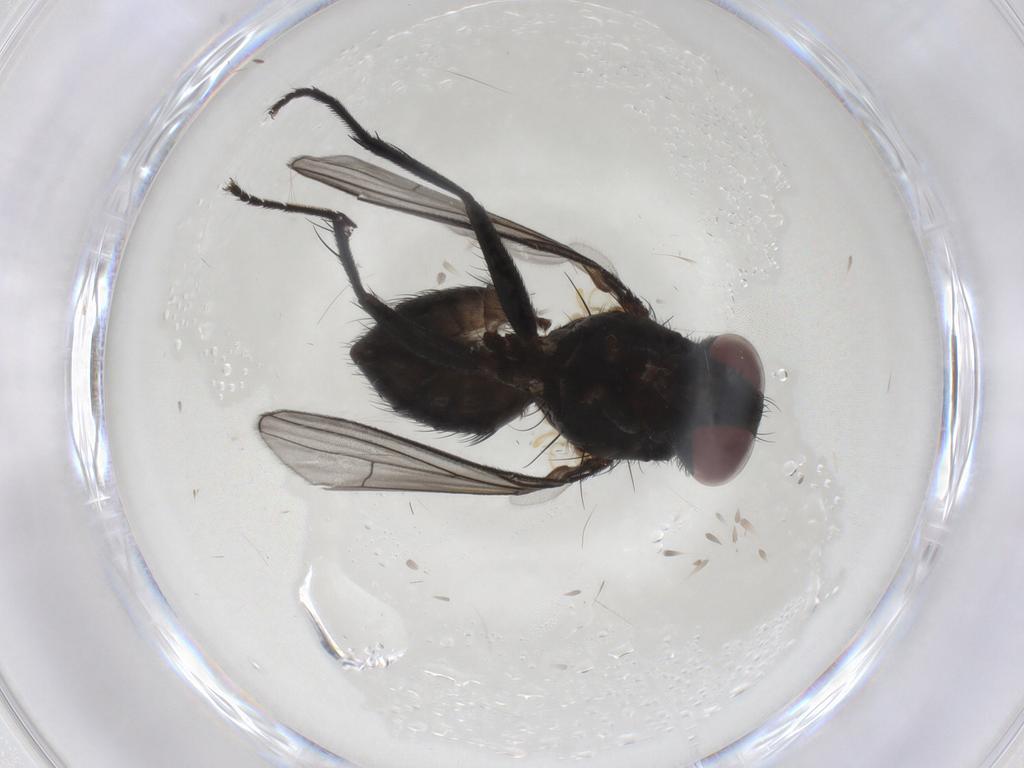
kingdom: Animalia
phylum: Arthropoda
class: Insecta
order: Diptera
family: Muscidae
